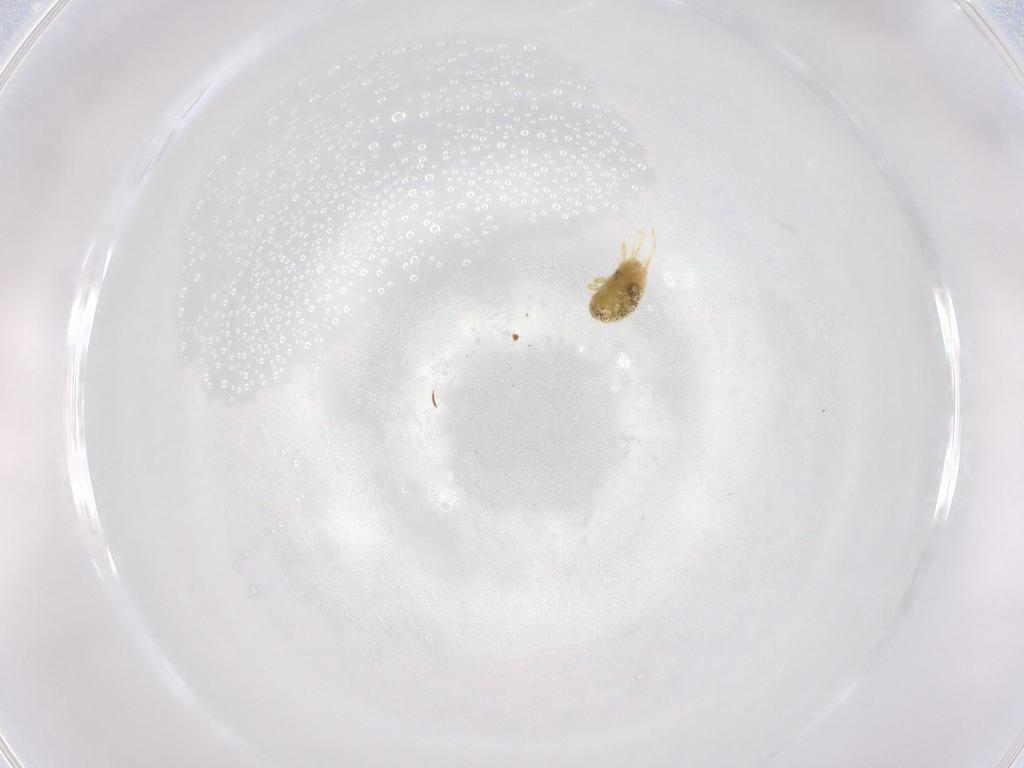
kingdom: Animalia
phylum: Arthropoda
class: Arachnida
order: Trombidiformes
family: Tetranychidae
